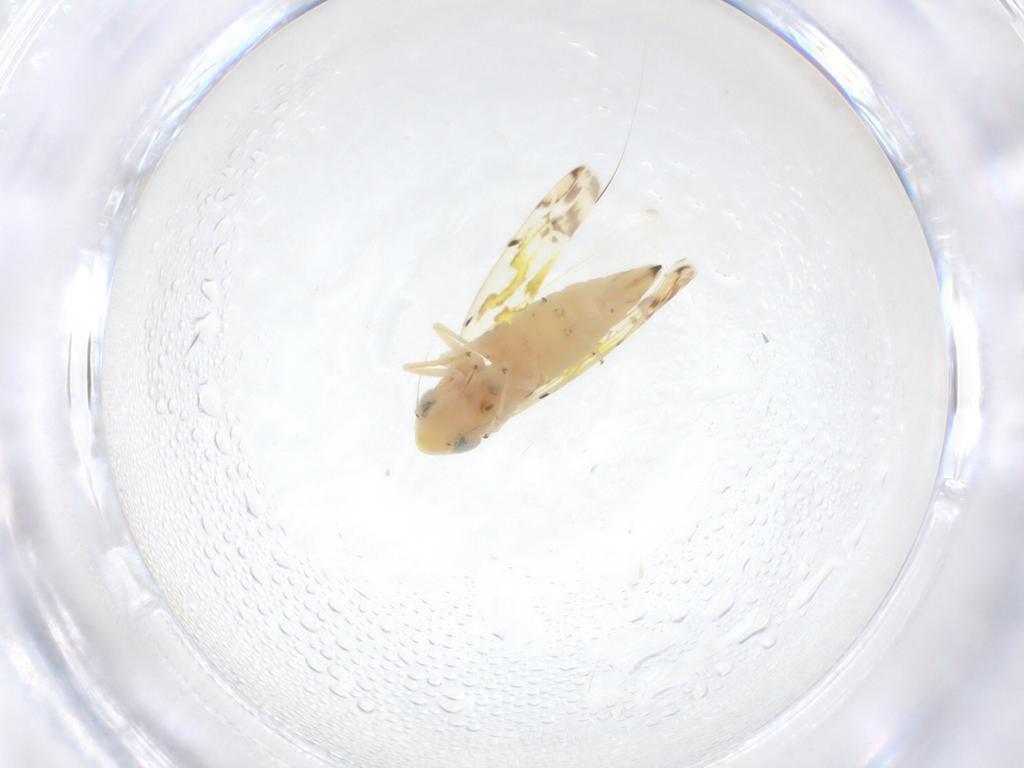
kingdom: Animalia
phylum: Arthropoda
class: Insecta
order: Hemiptera
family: Cicadellidae
